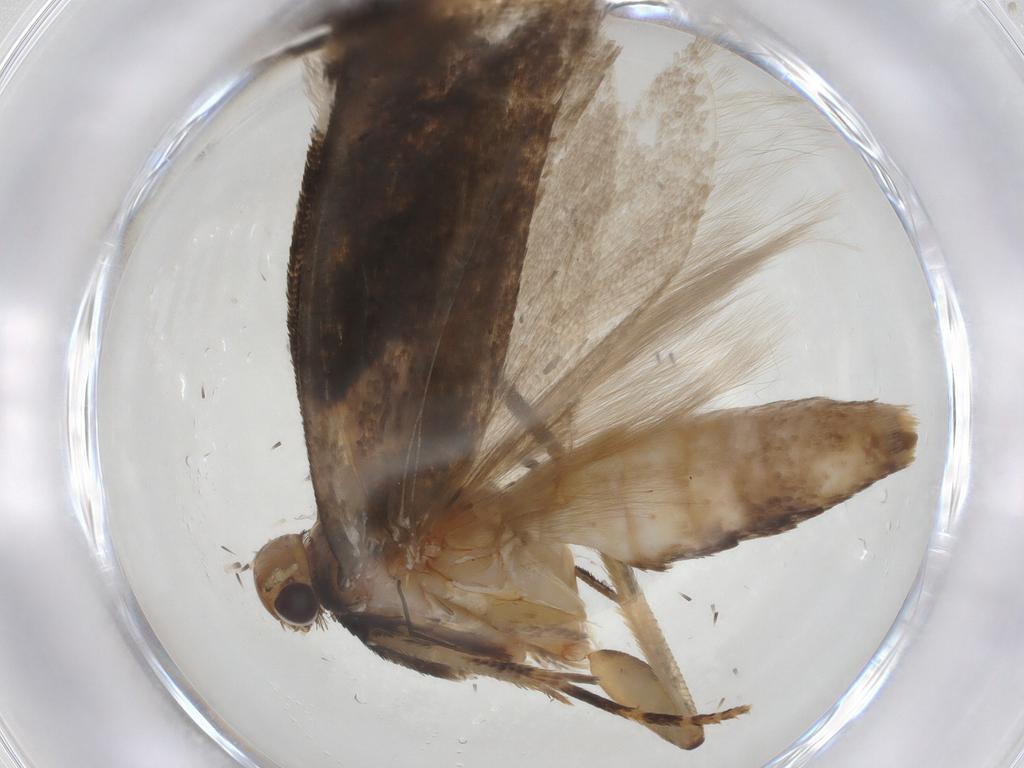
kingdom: Animalia
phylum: Arthropoda
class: Insecta
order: Lepidoptera
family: Gelechiidae
